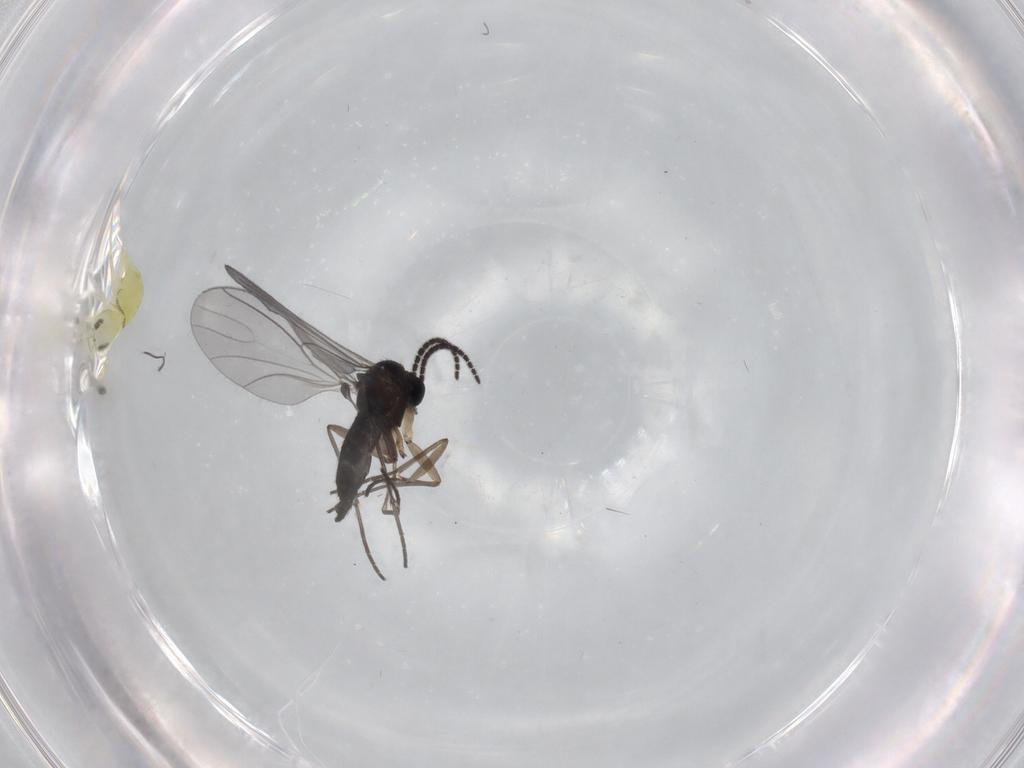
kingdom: Animalia
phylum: Arthropoda
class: Insecta
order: Diptera
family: Sciaridae
